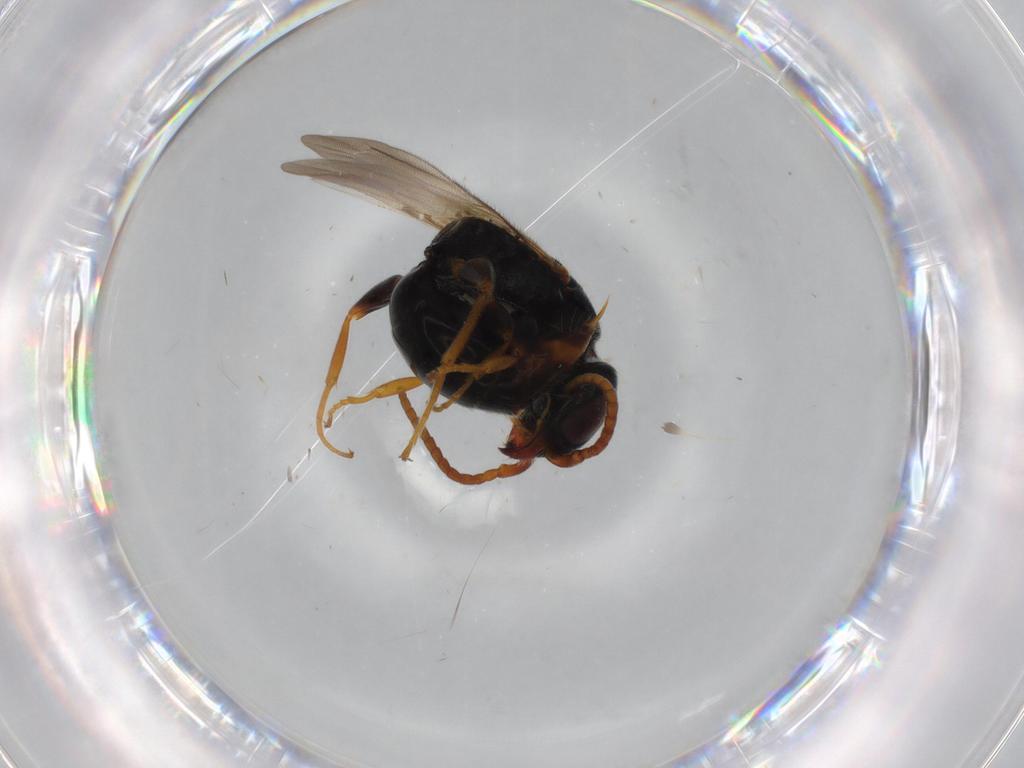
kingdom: Animalia
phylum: Arthropoda
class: Insecta
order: Hymenoptera
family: Bethylidae
